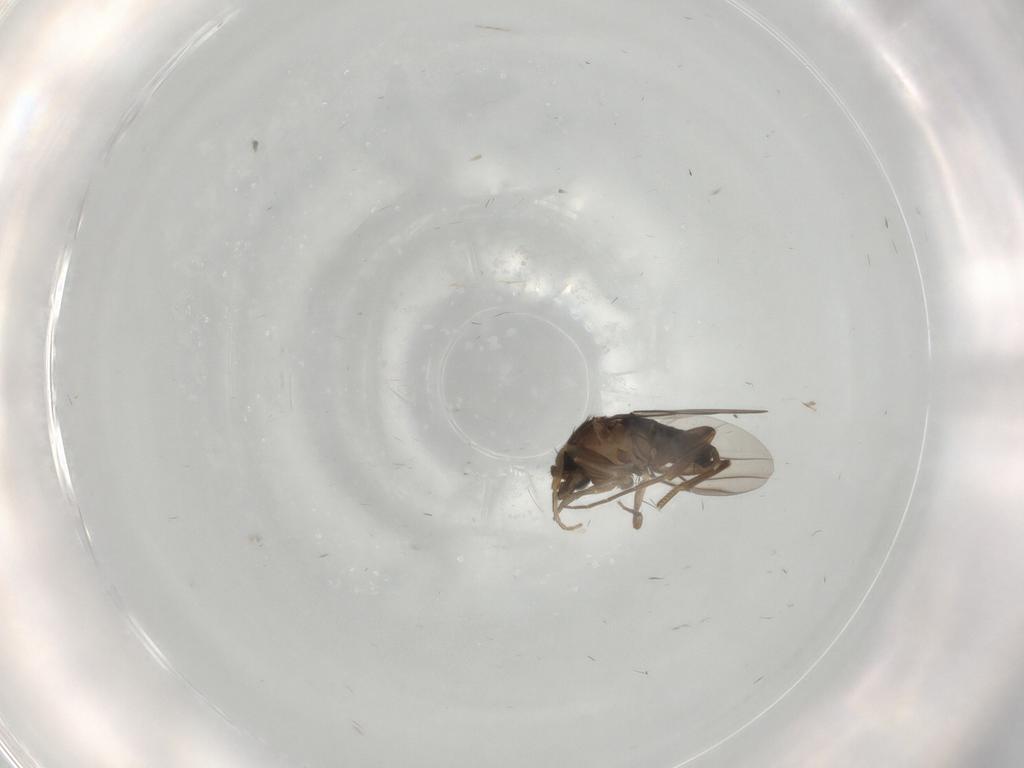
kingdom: Animalia
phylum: Arthropoda
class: Insecta
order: Diptera
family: Phoridae
